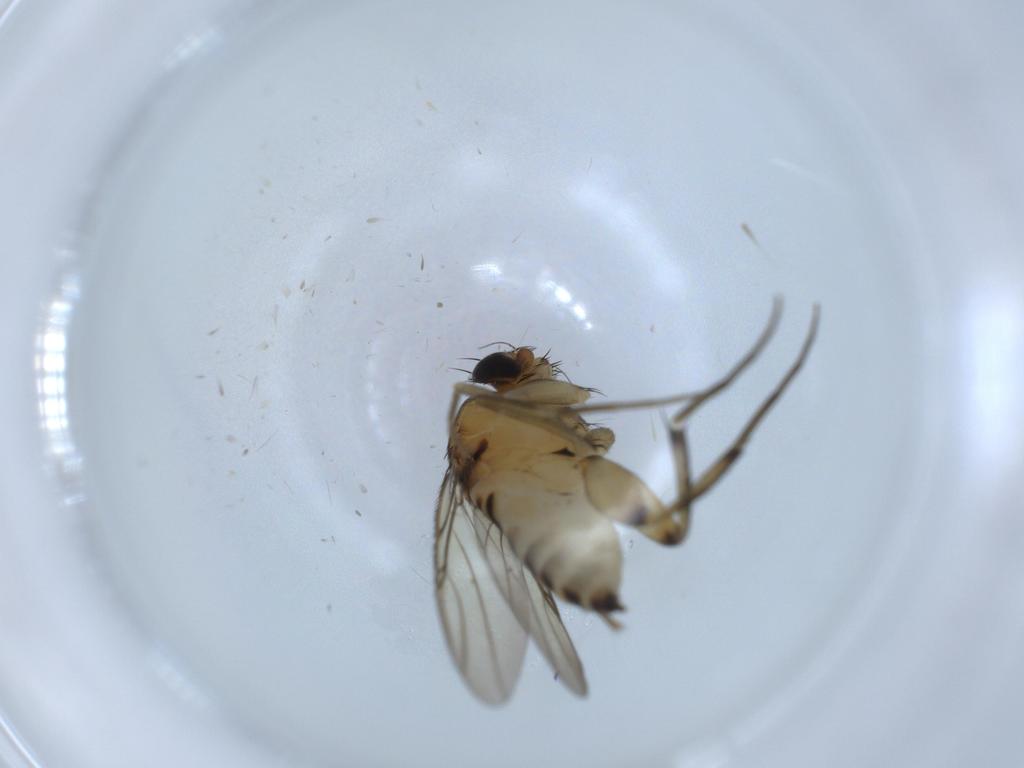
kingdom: Animalia
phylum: Arthropoda
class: Insecta
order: Diptera
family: Phoridae
